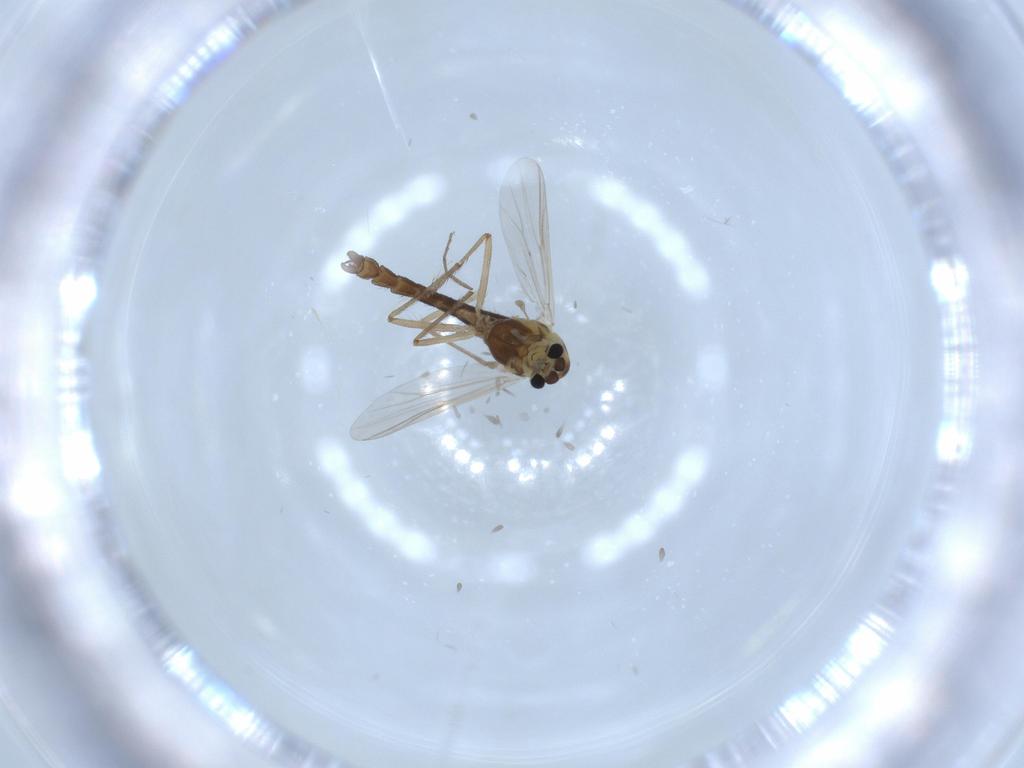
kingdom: Animalia
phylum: Arthropoda
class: Insecta
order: Diptera
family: Chironomidae
